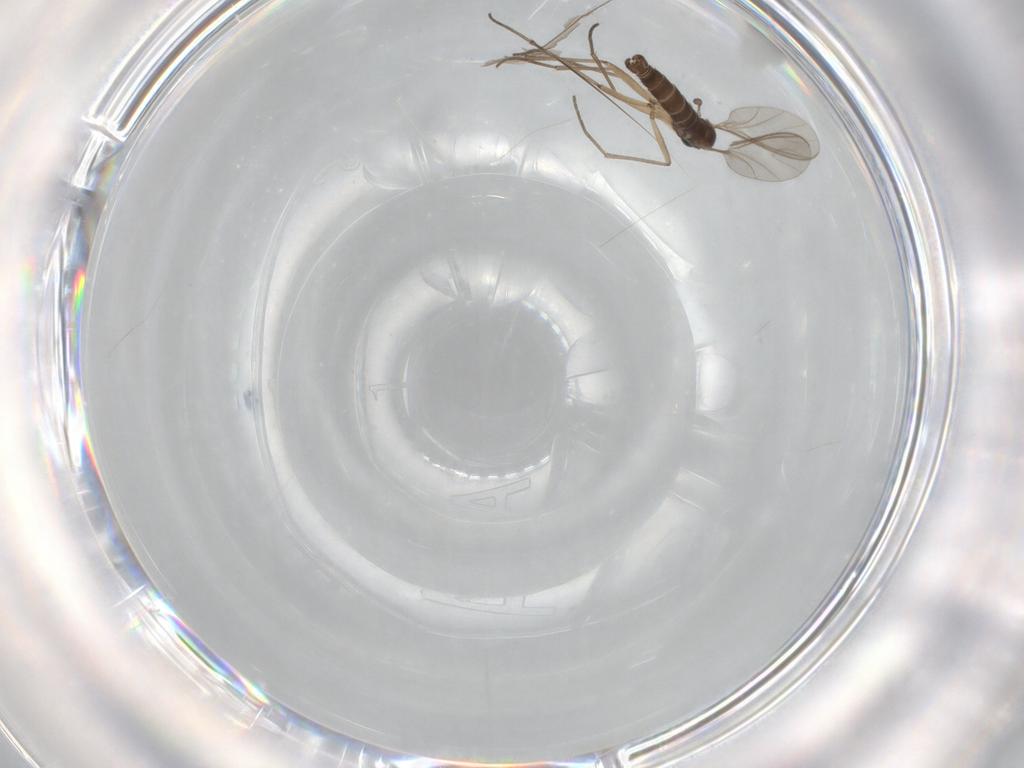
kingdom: Animalia
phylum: Arthropoda
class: Insecta
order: Diptera
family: Sciaridae
